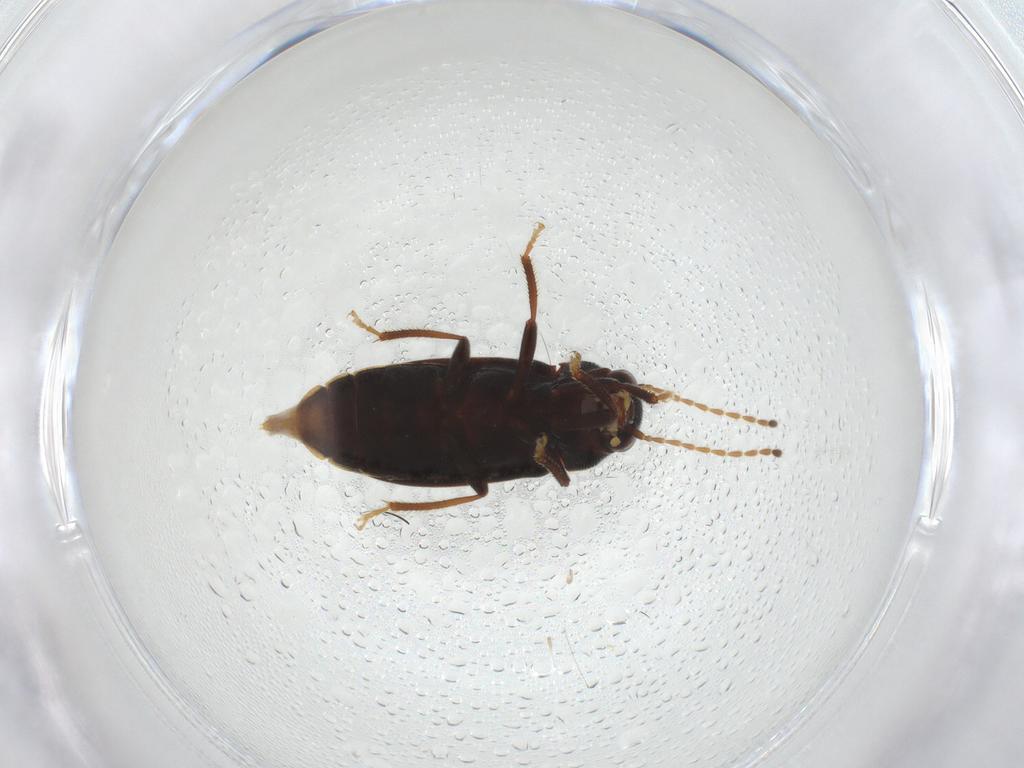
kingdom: Animalia
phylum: Arthropoda
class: Insecta
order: Coleoptera
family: Ptilodactylidae
